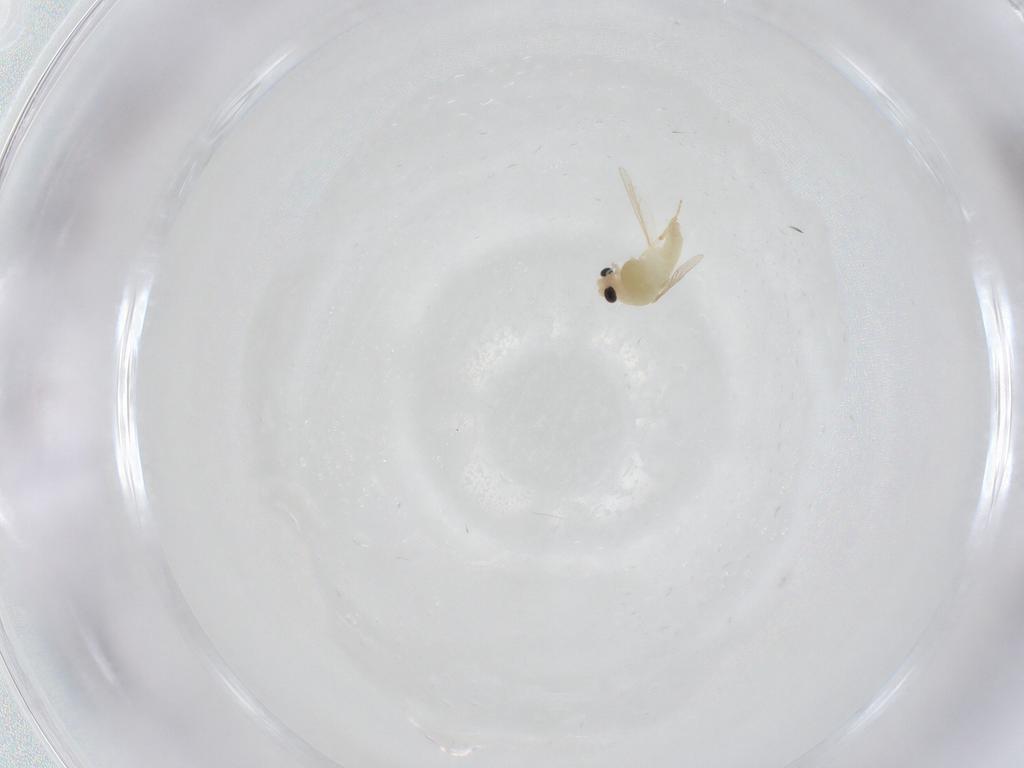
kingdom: Animalia
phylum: Arthropoda
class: Insecta
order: Diptera
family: Chironomidae
